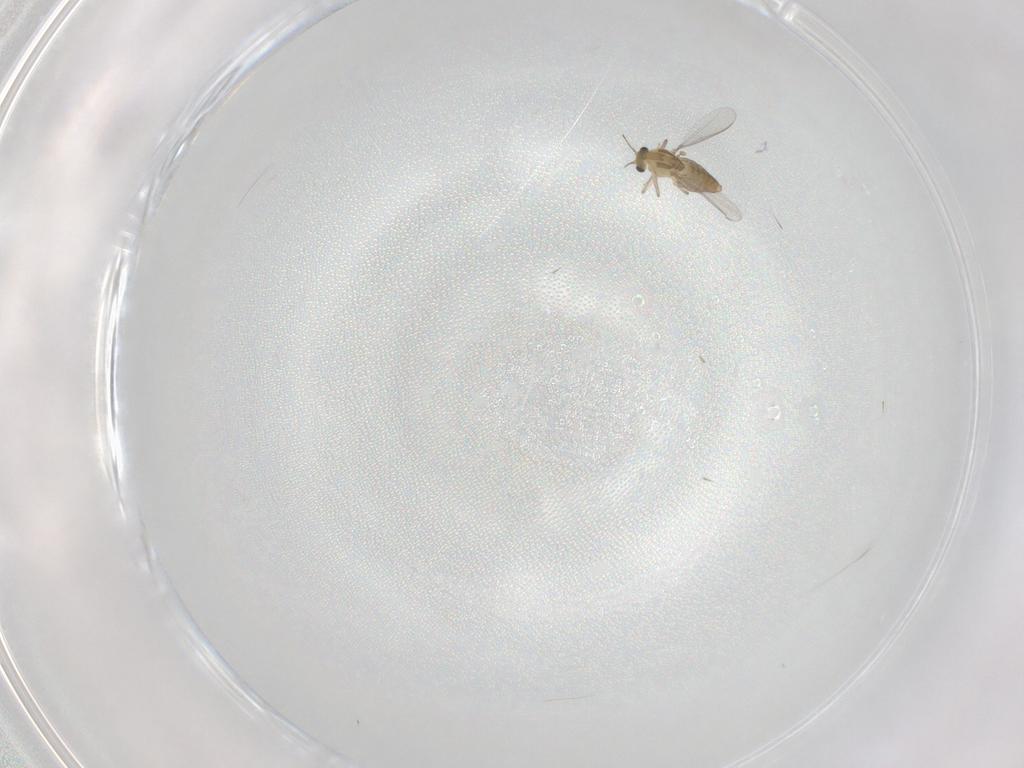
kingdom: Animalia
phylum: Arthropoda
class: Insecta
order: Diptera
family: Chironomidae
